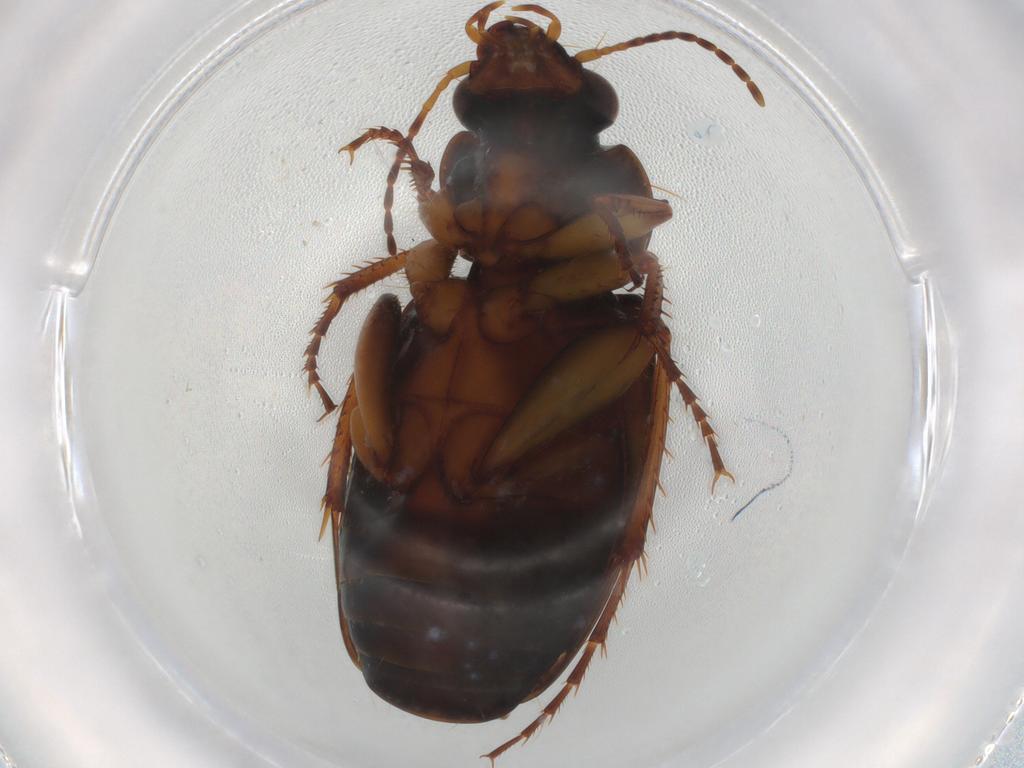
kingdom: Animalia
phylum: Arthropoda
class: Insecta
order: Coleoptera
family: Carabidae
